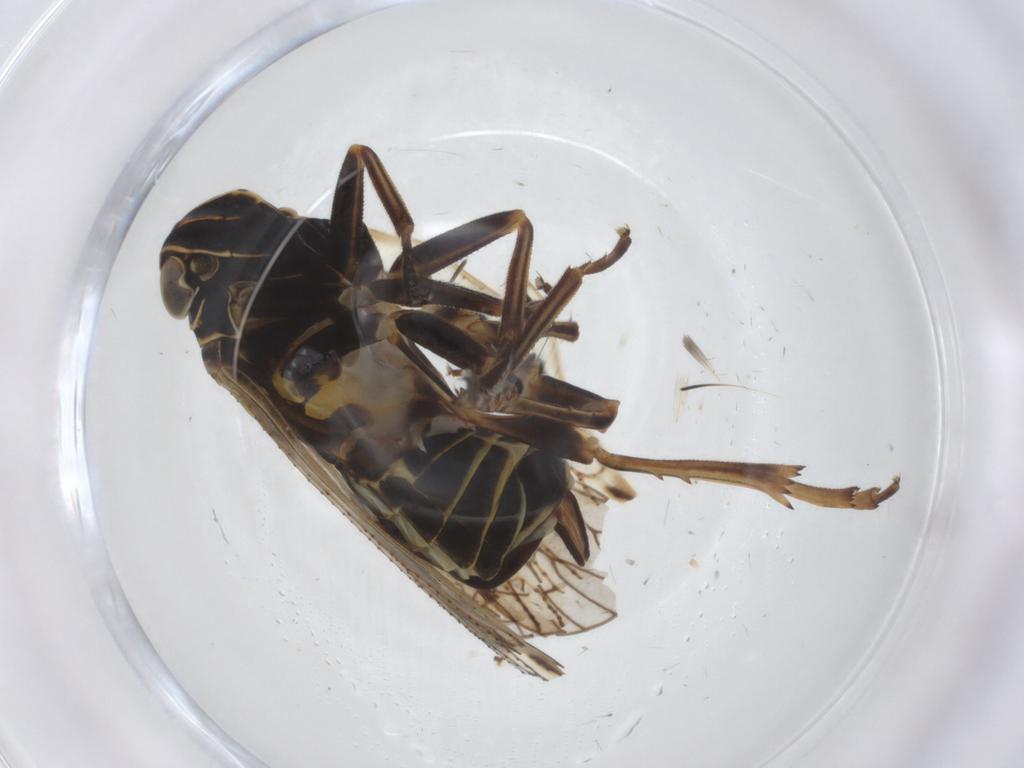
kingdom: Animalia
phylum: Arthropoda
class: Insecta
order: Hemiptera
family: Cixiidae
